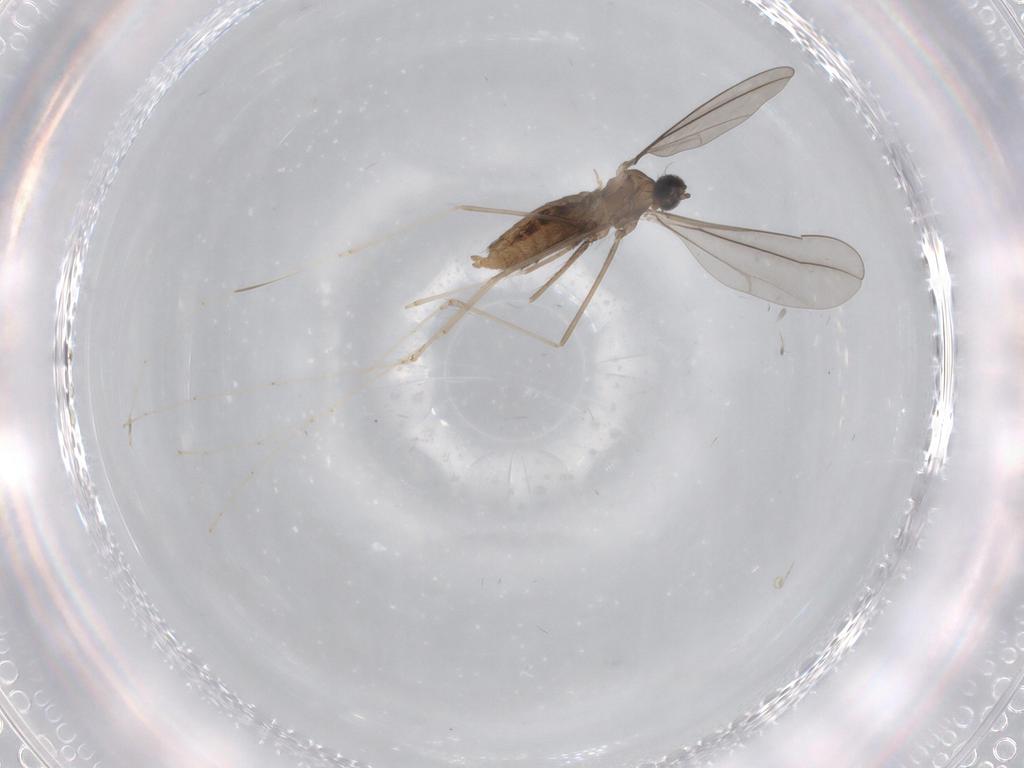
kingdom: Animalia
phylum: Arthropoda
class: Insecta
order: Diptera
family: Cecidomyiidae
